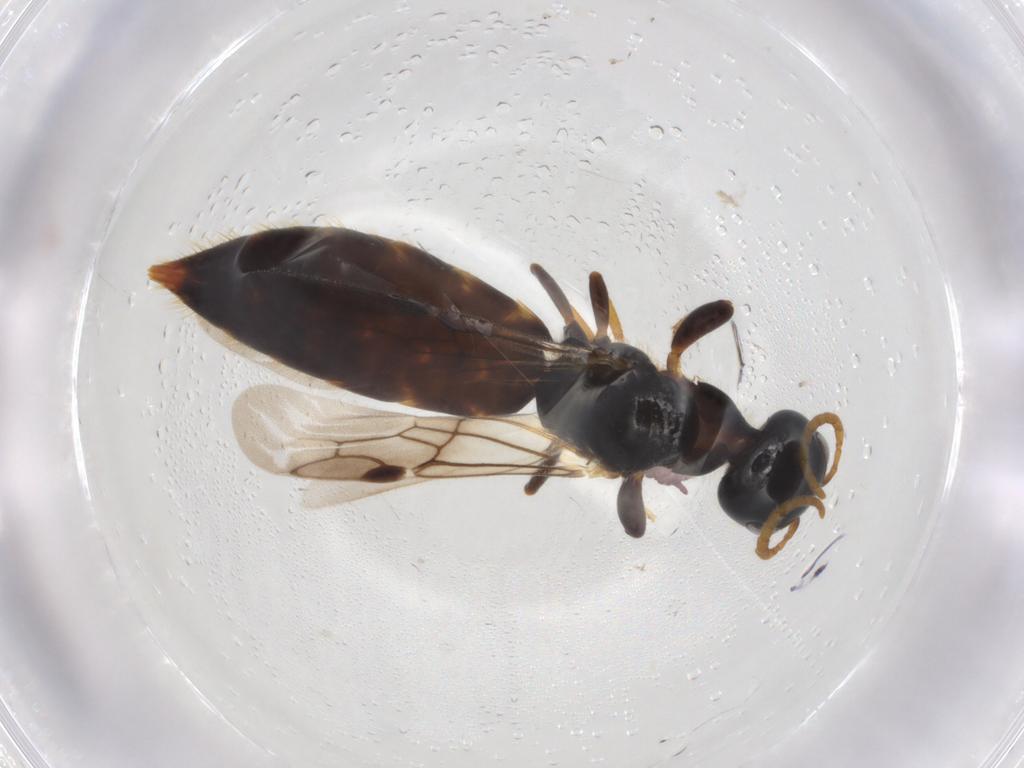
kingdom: Animalia
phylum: Arthropoda
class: Insecta
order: Hymenoptera
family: Scolebythidae
